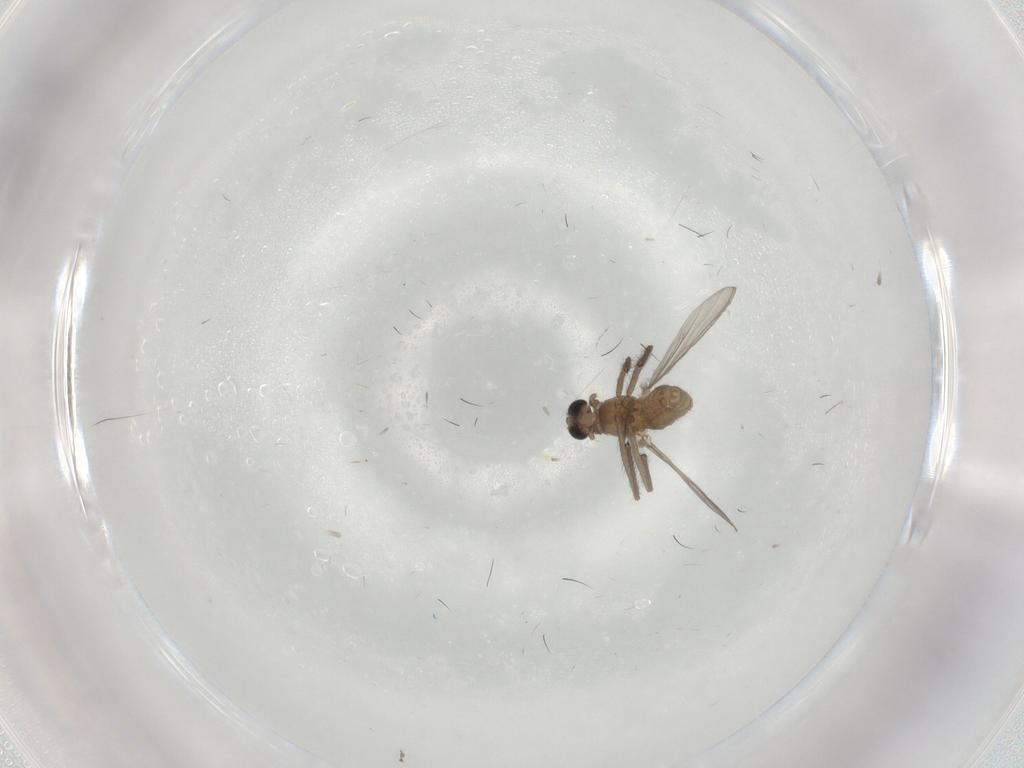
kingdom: Animalia
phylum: Arthropoda
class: Insecta
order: Diptera
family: Chironomidae
